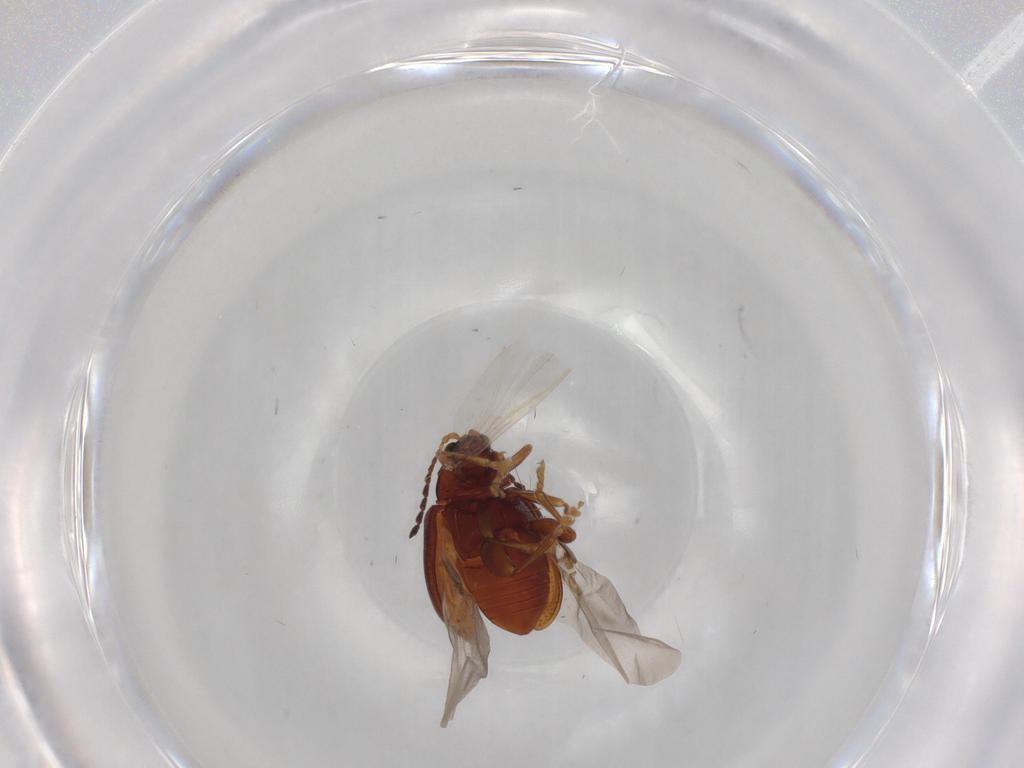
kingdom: Animalia
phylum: Arthropoda
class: Insecta
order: Coleoptera
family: Chrysomelidae
